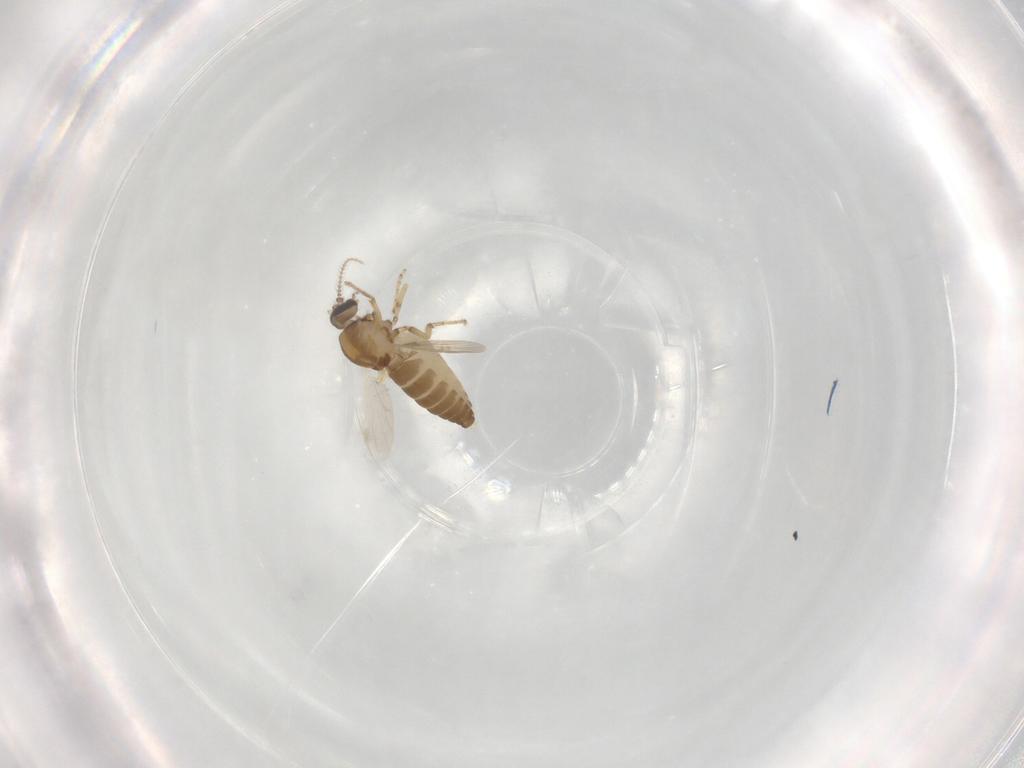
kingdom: Animalia
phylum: Arthropoda
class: Insecta
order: Diptera
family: Ceratopogonidae
